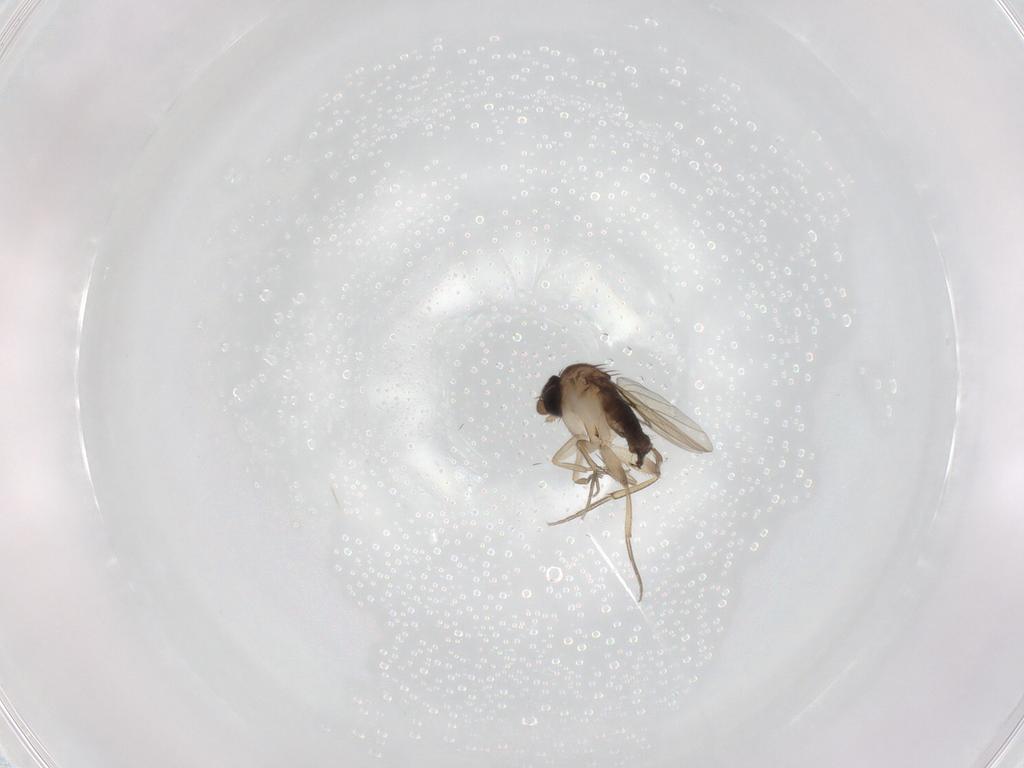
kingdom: Animalia
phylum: Arthropoda
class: Insecta
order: Diptera
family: Phoridae
